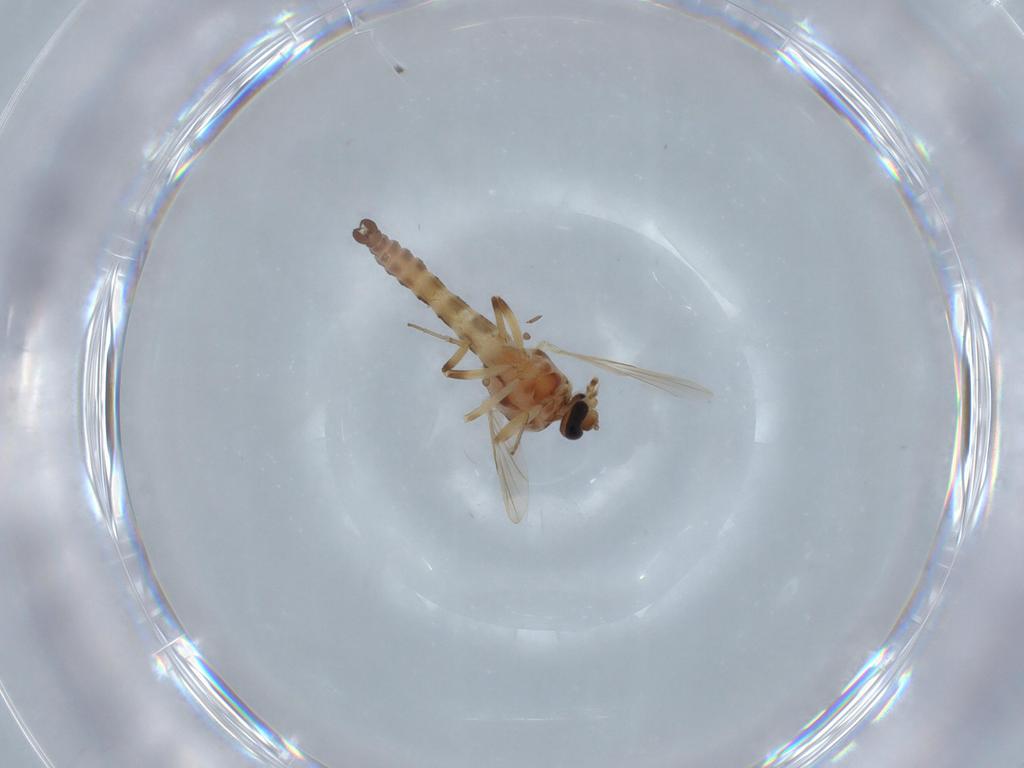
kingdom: Animalia
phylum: Arthropoda
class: Insecta
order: Diptera
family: Ceratopogonidae
